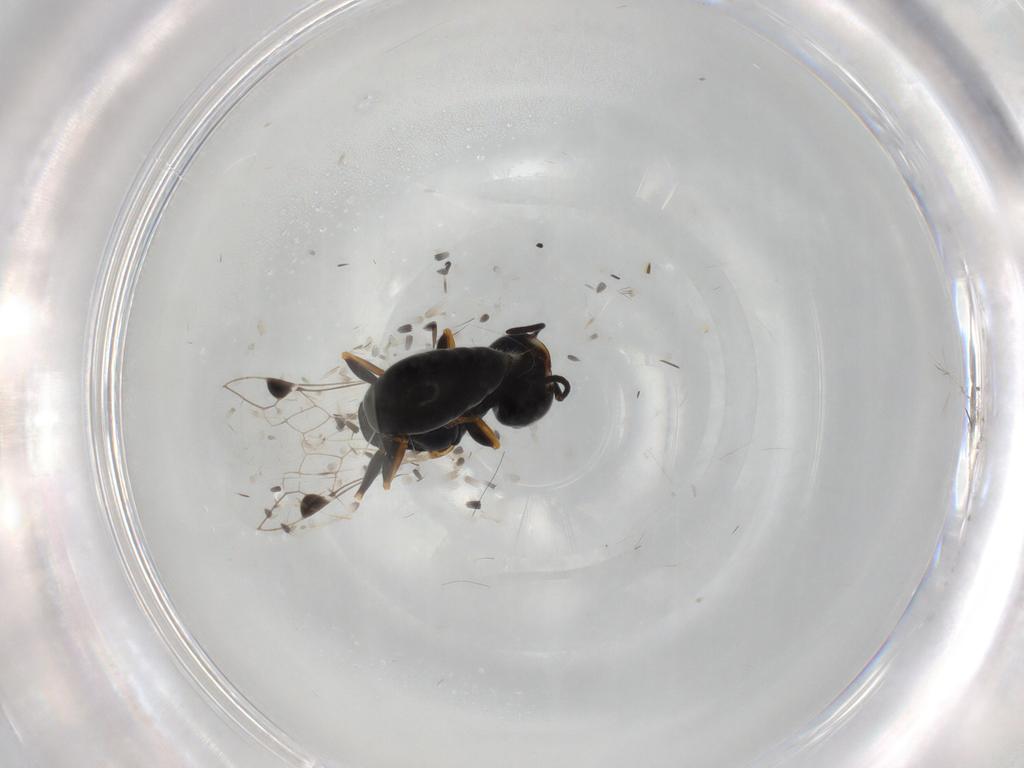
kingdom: Animalia
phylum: Arthropoda
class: Insecta
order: Hymenoptera
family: Crabronidae
